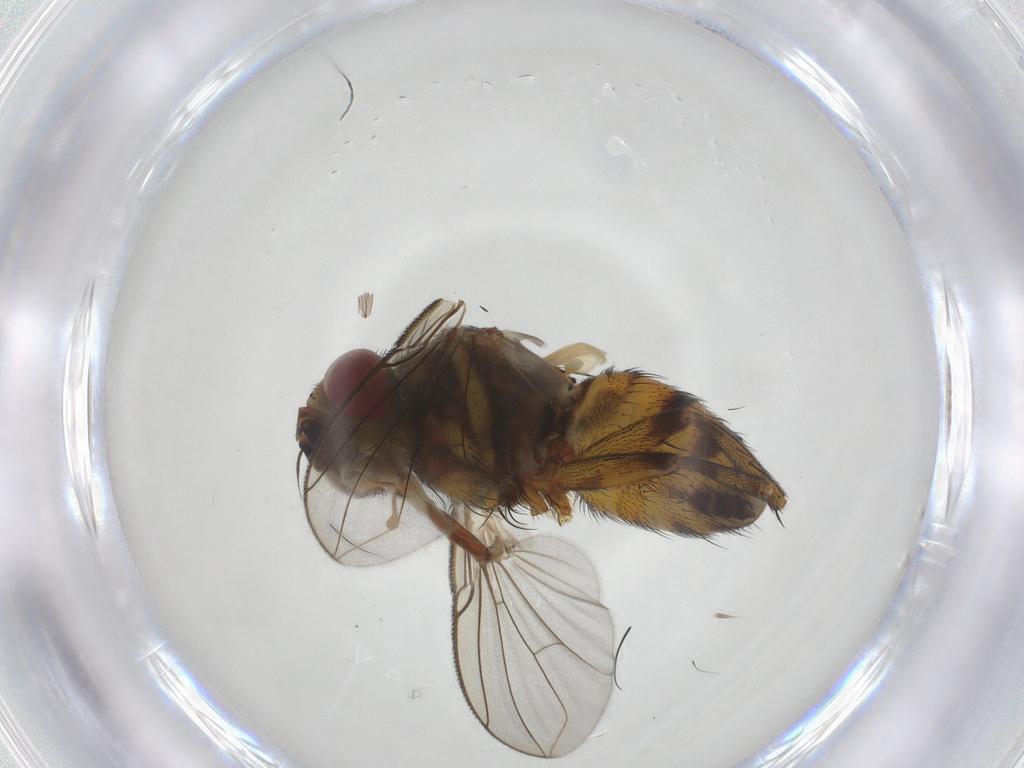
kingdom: Animalia
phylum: Arthropoda
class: Insecta
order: Diptera
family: Tachinidae
